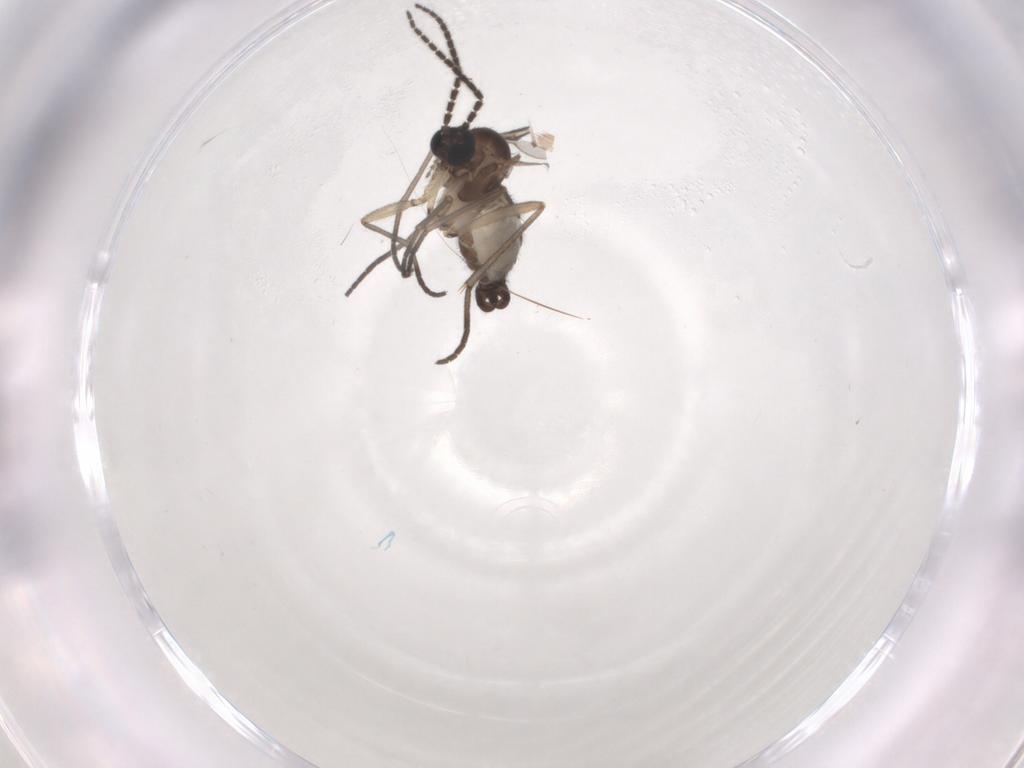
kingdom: Animalia
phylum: Arthropoda
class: Insecta
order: Diptera
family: Sciaridae
